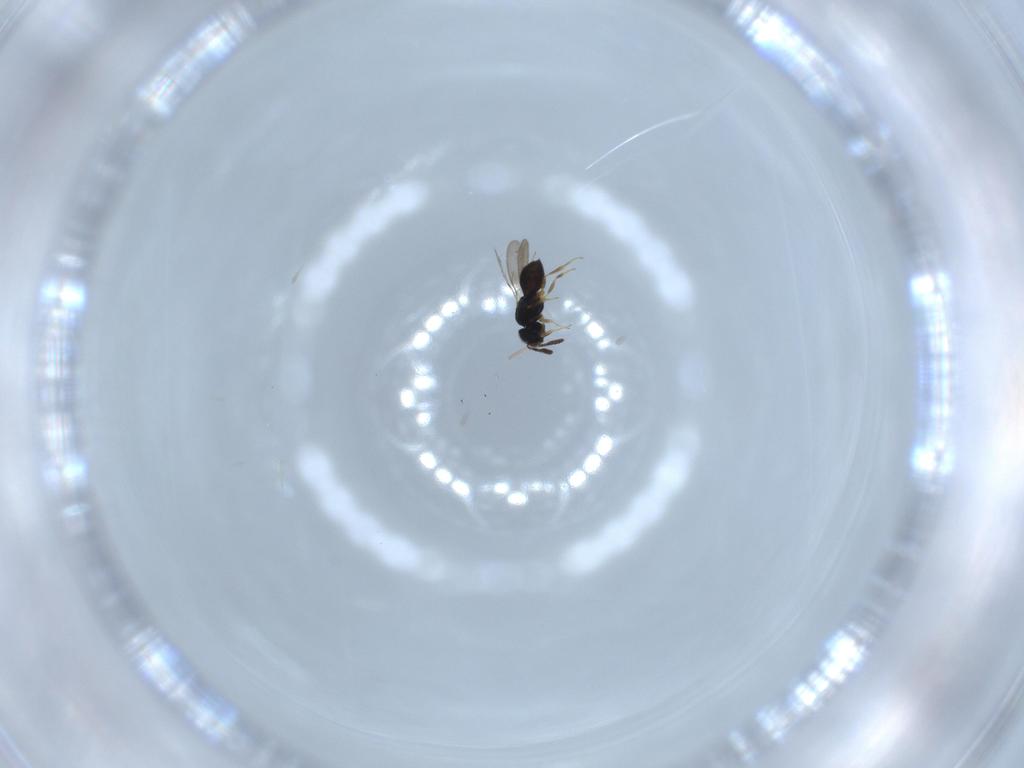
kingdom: Animalia
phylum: Arthropoda
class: Insecta
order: Hymenoptera
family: Scelionidae
